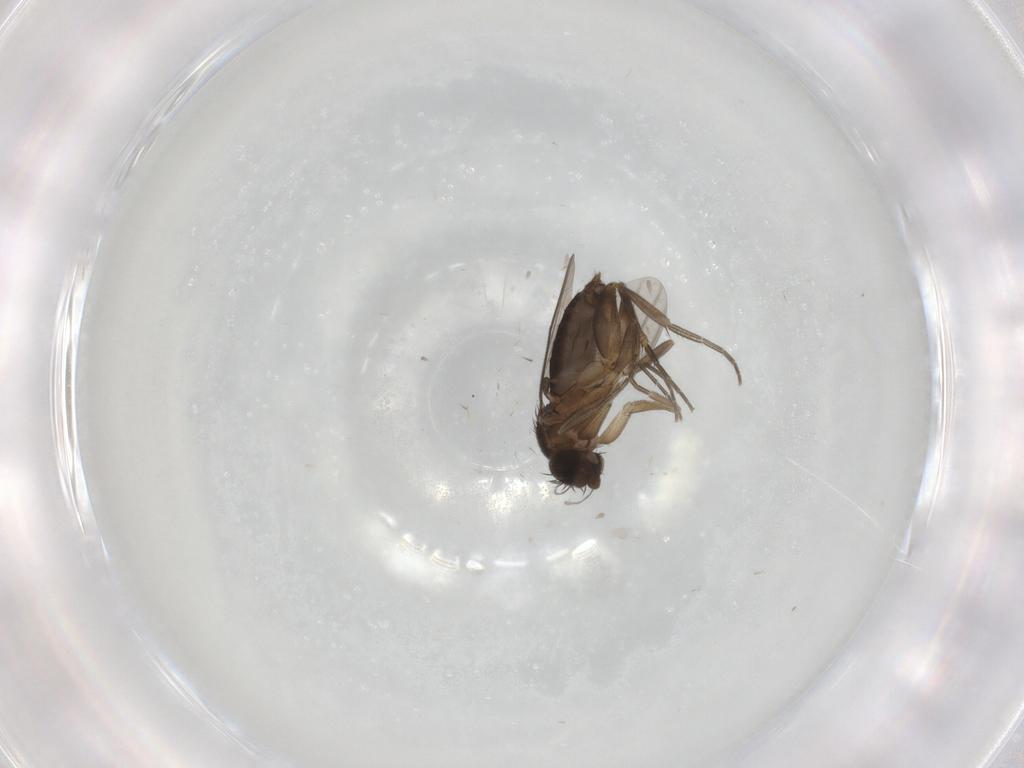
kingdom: Animalia
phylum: Arthropoda
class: Insecta
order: Diptera
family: Phoridae
